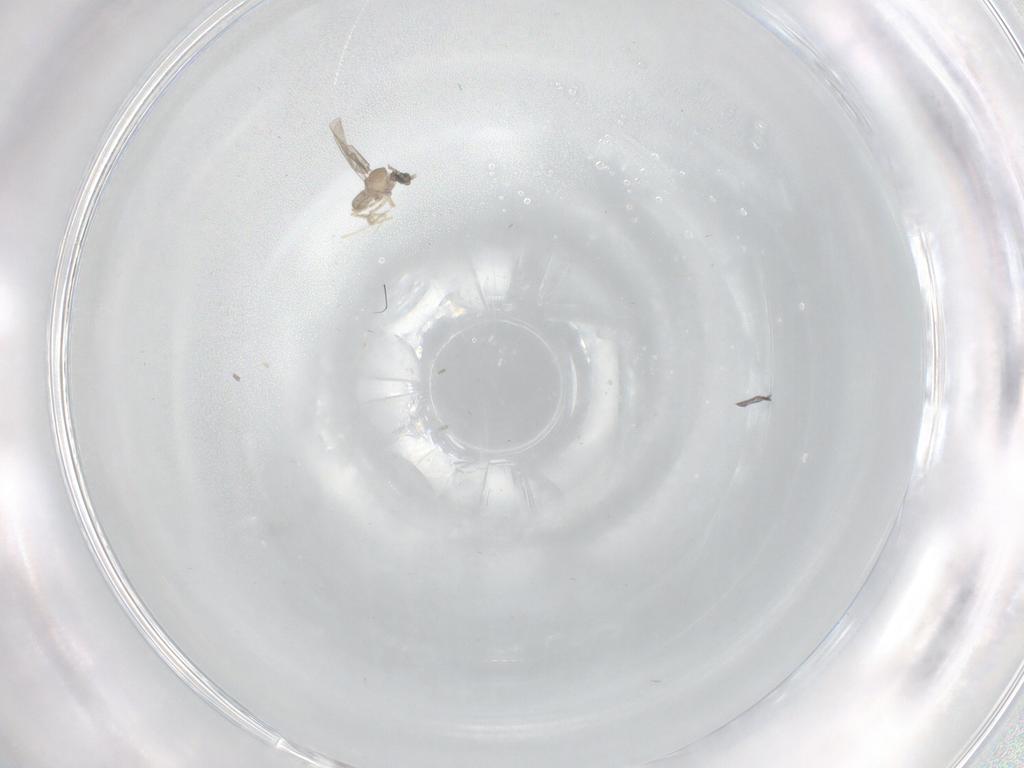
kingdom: Animalia
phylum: Arthropoda
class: Insecta
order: Diptera
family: Cecidomyiidae
